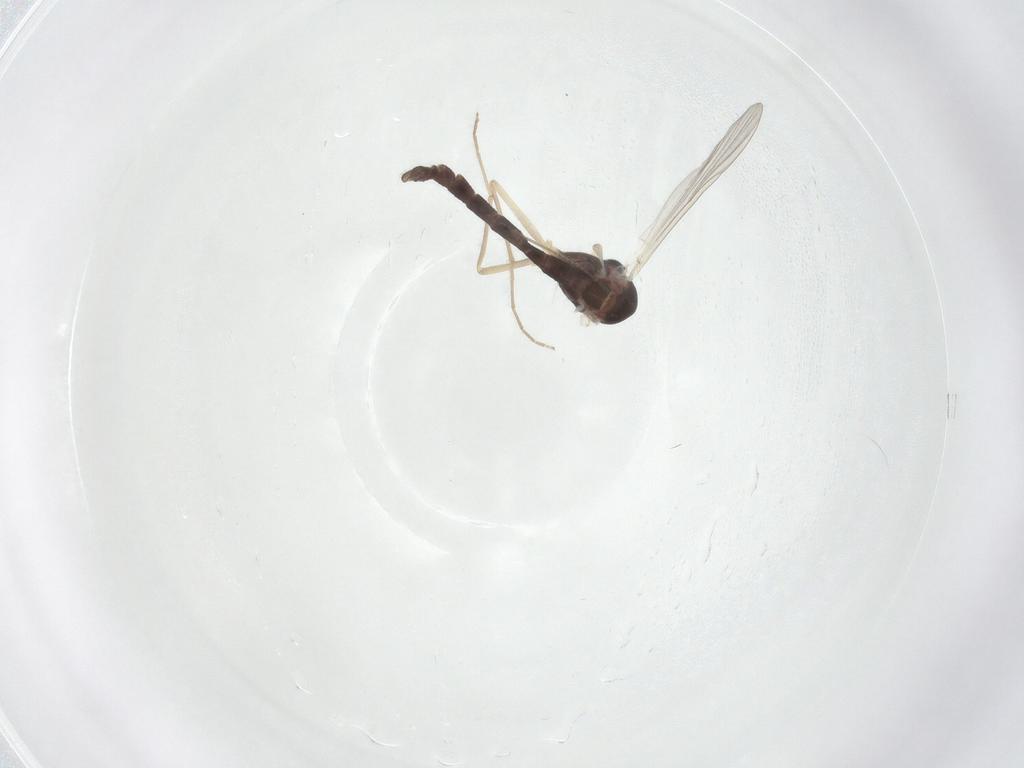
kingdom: Animalia
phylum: Arthropoda
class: Insecta
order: Diptera
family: Chironomidae
